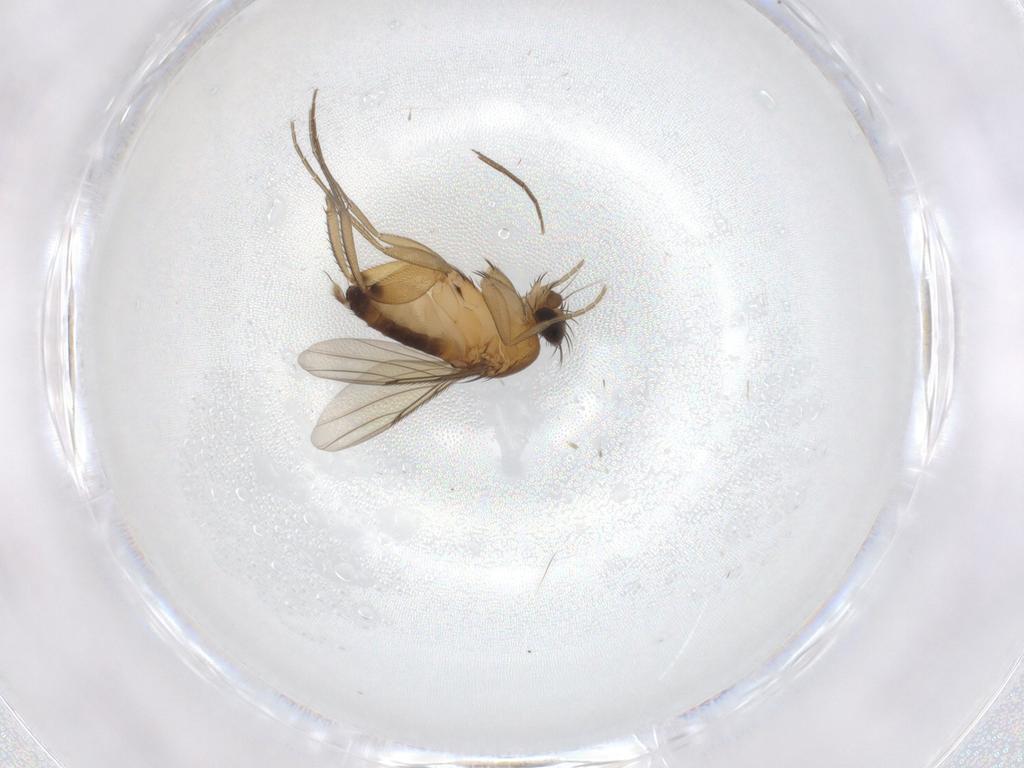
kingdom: Animalia
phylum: Arthropoda
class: Insecta
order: Diptera
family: Phoridae
